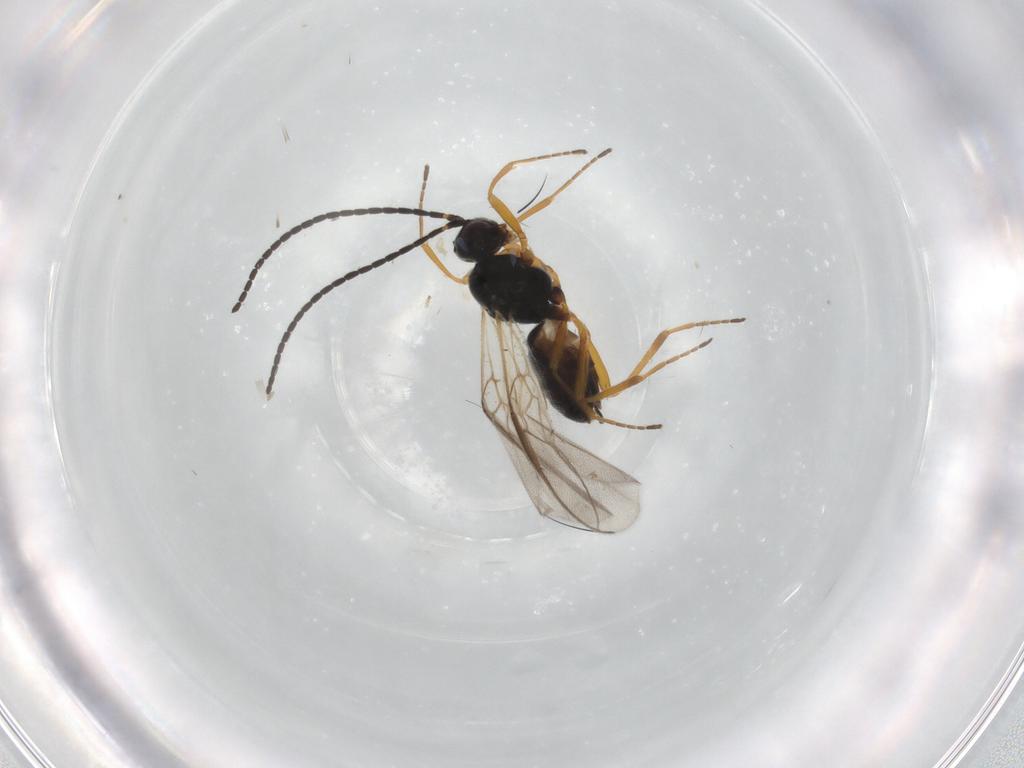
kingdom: Animalia
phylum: Arthropoda
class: Insecta
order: Hymenoptera
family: Braconidae
